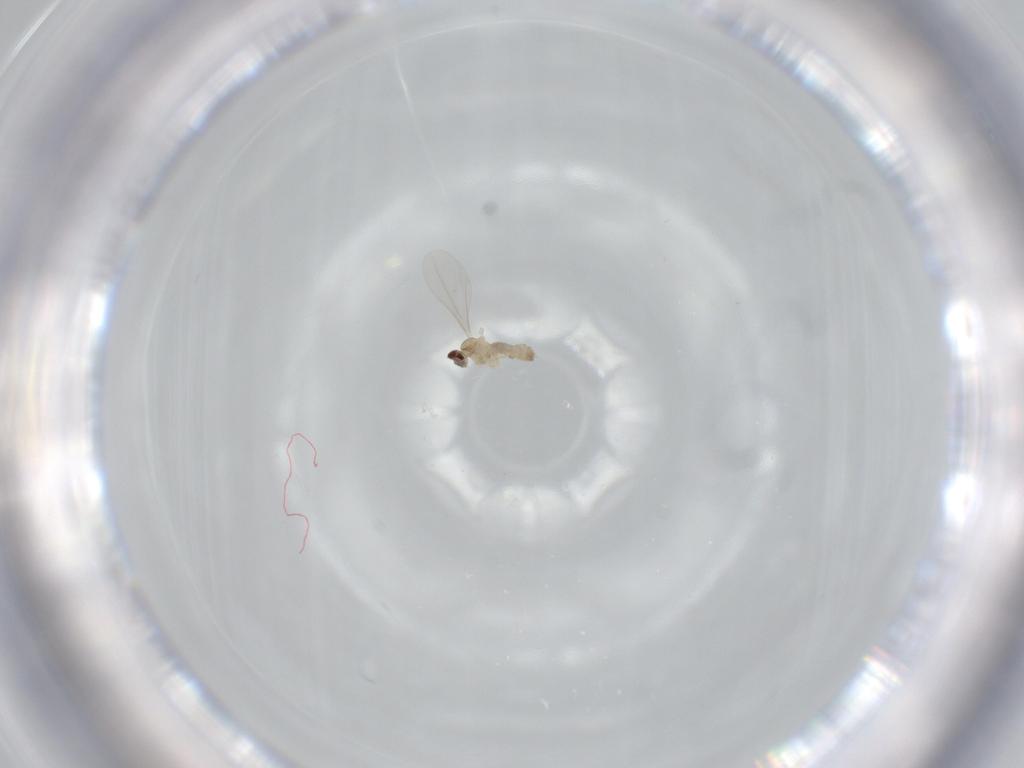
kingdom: Animalia
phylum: Arthropoda
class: Insecta
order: Diptera
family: Cecidomyiidae
